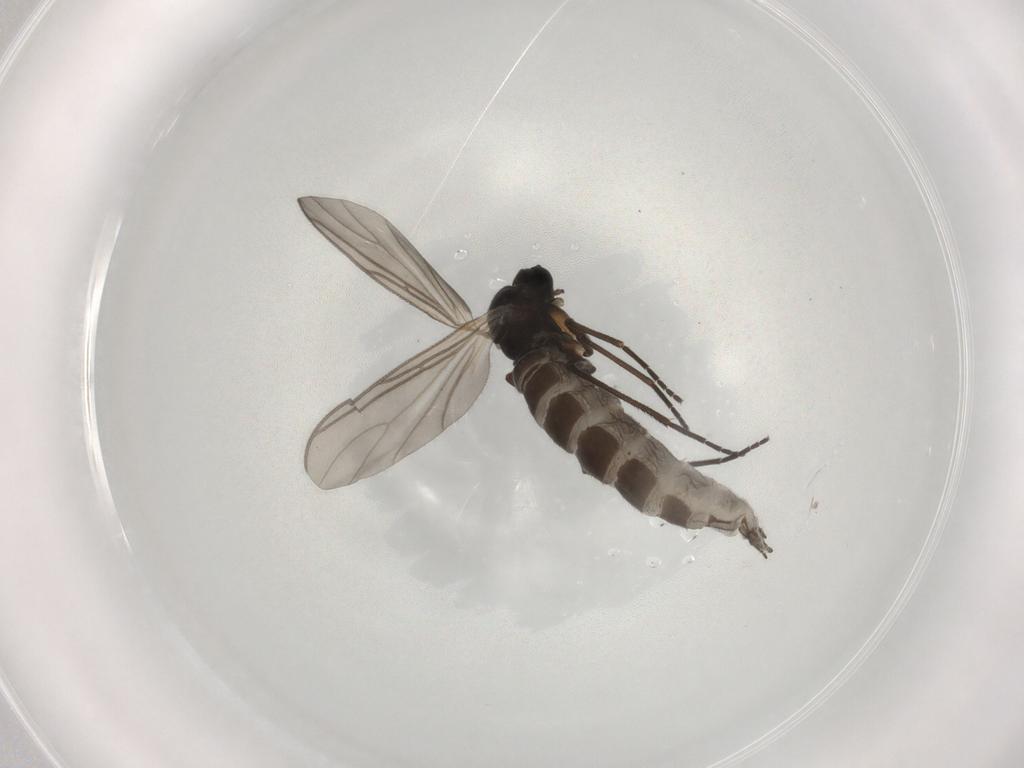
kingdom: Animalia
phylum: Arthropoda
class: Insecta
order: Diptera
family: Sciaridae
